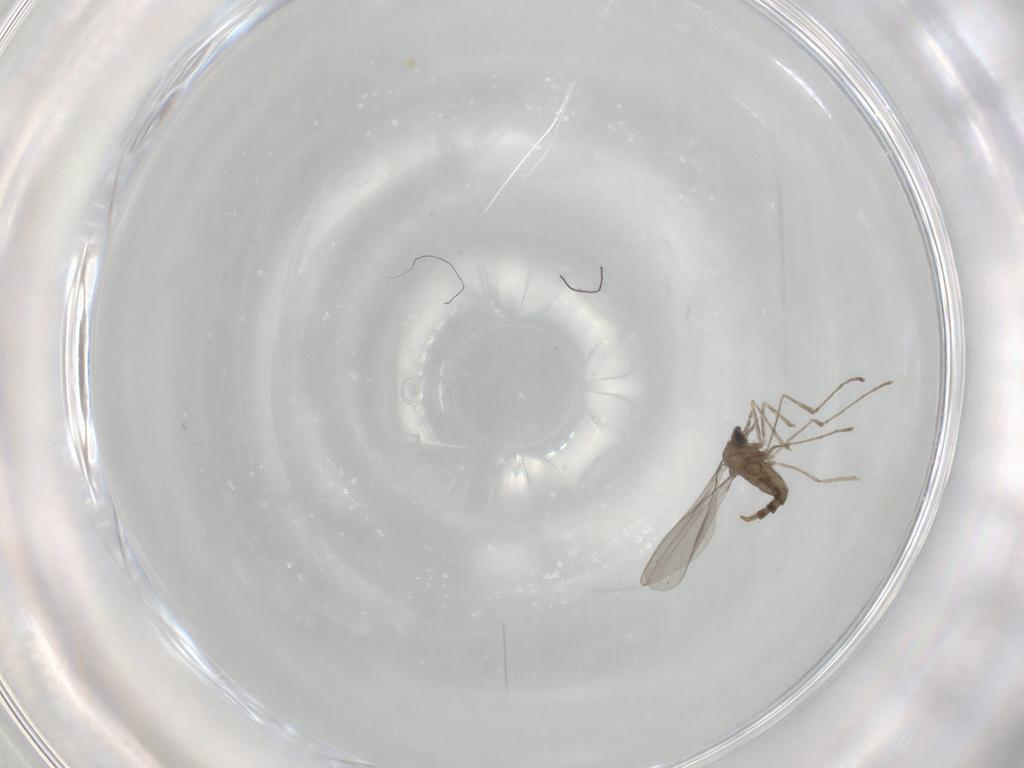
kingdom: Animalia
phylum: Arthropoda
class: Insecta
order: Diptera
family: Cecidomyiidae
